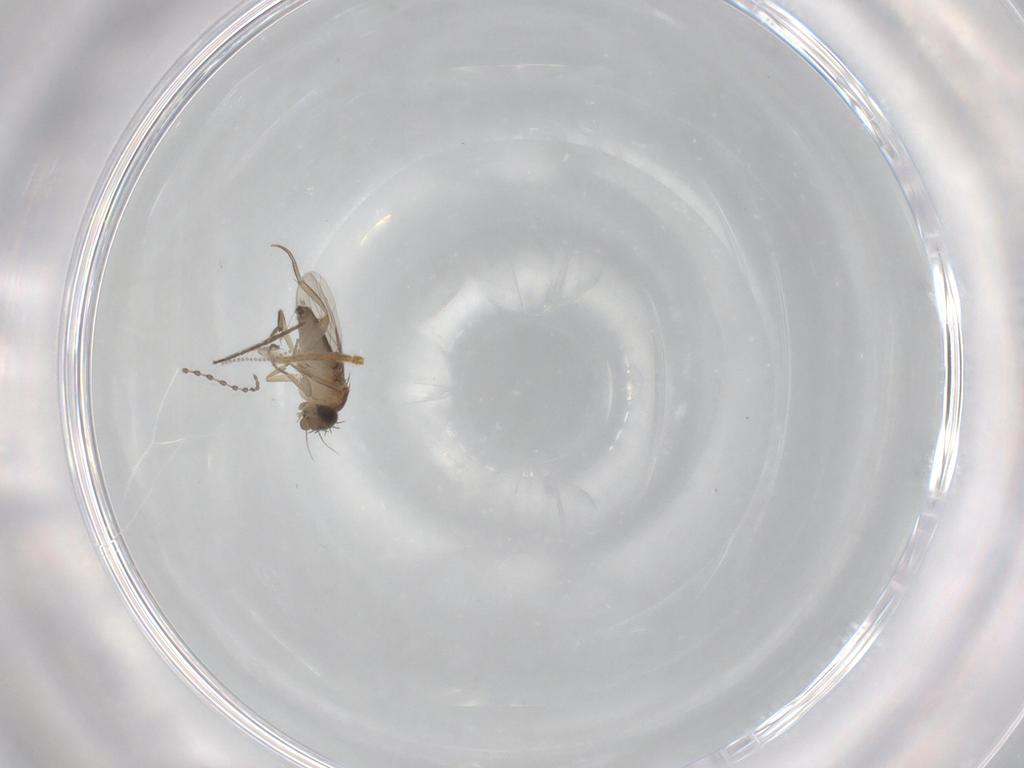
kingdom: Animalia
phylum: Arthropoda
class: Insecta
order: Diptera
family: Phoridae
